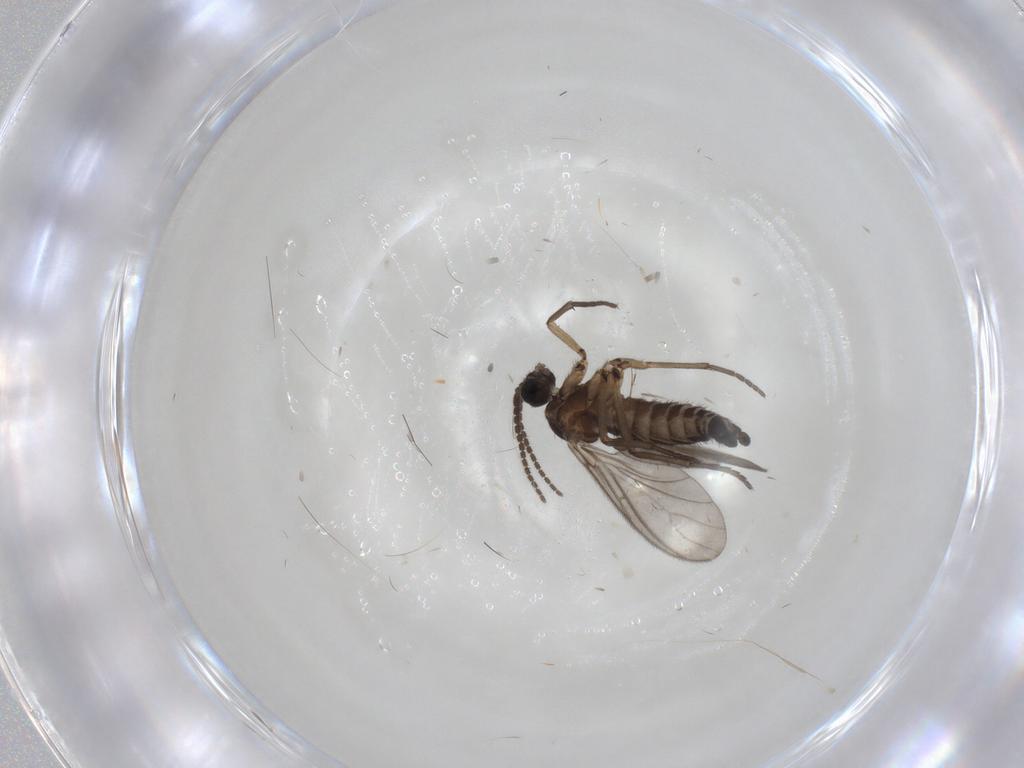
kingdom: Animalia
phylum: Arthropoda
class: Insecta
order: Diptera
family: Sciaridae
